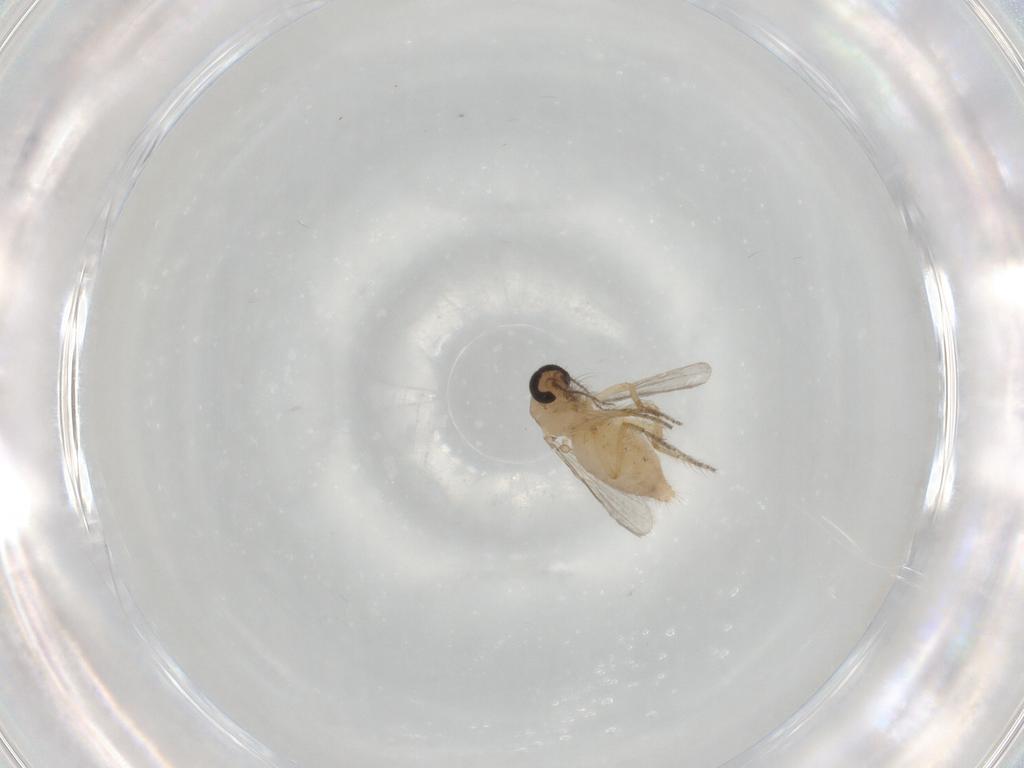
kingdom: Animalia
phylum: Arthropoda
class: Insecta
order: Diptera
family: Ceratopogonidae
